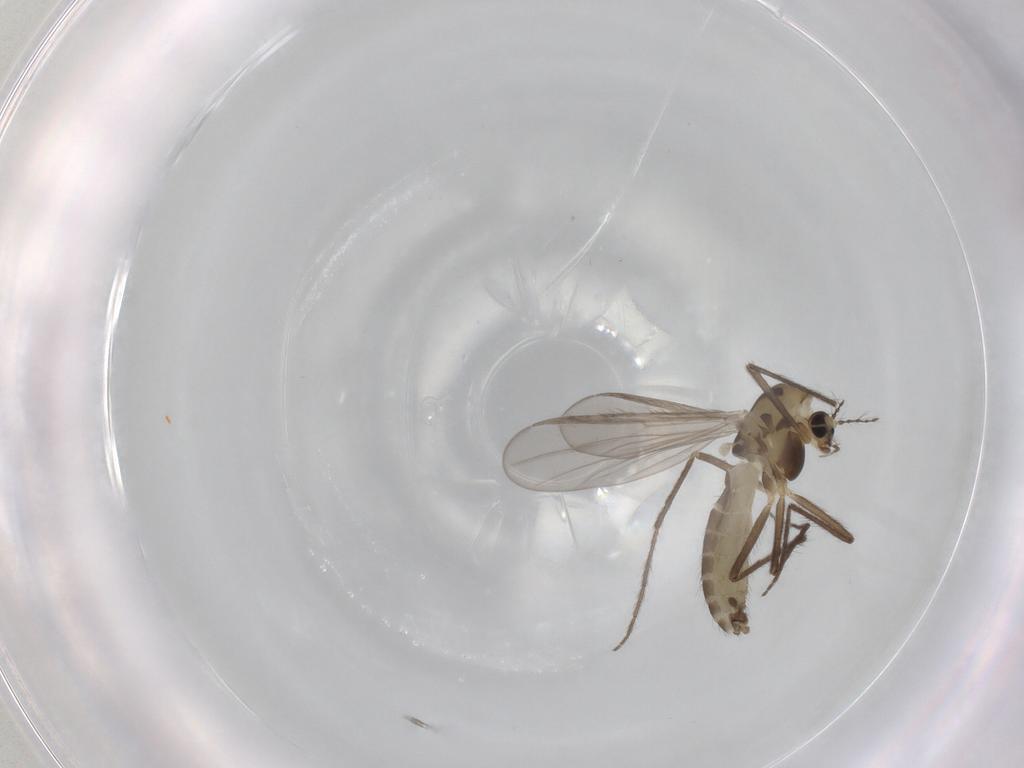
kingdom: Animalia
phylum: Arthropoda
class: Insecta
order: Diptera
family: Chironomidae
